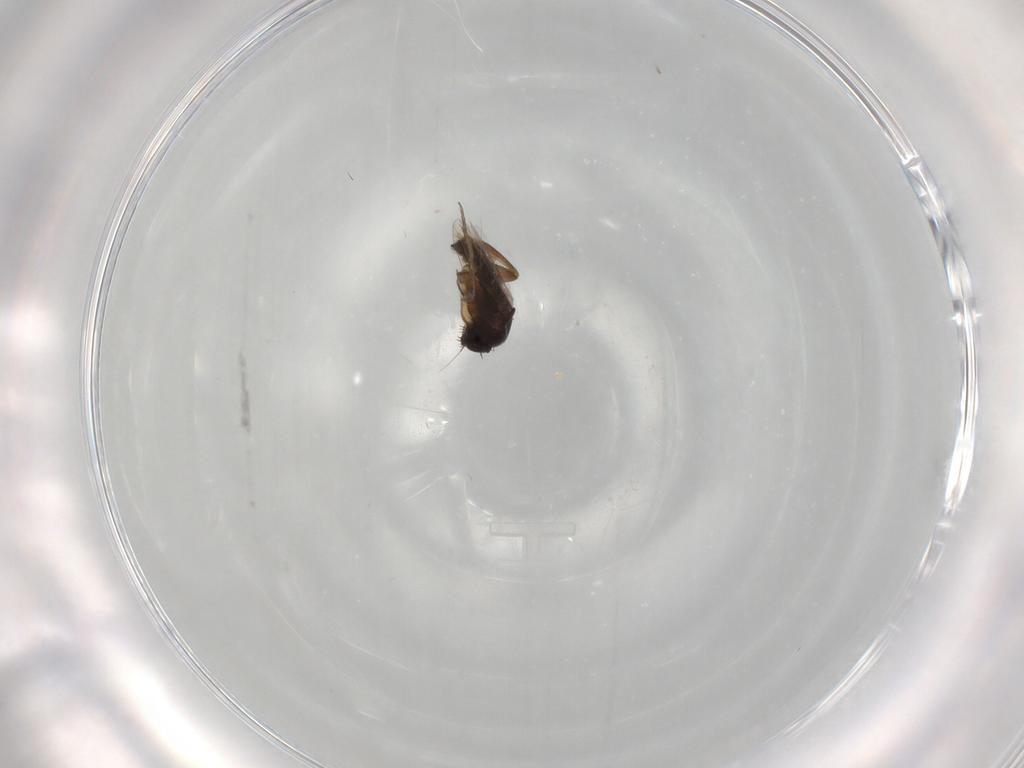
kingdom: Animalia
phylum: Arthropoda
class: Insecta
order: Diptera
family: Phoridae
